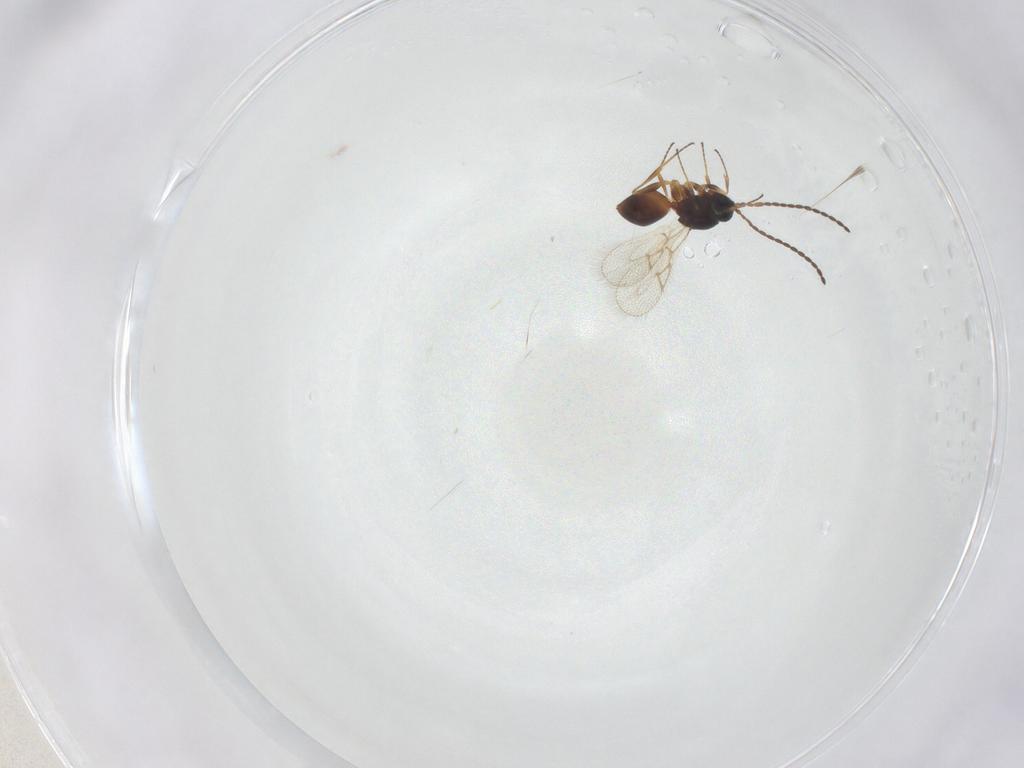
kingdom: Animalia
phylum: Arthropoda
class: Insecta
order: Hymenoptera
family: Figitidae
